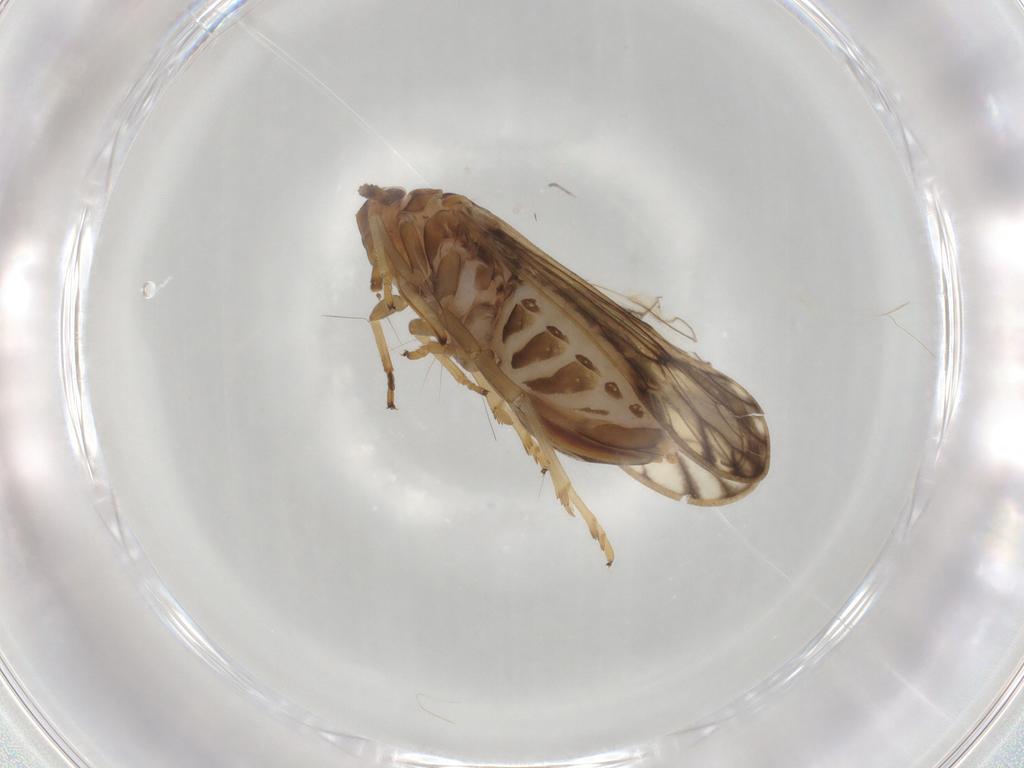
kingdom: Animalia
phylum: Arthropoda
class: Insecta
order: Hemiptera
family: Delphacidae
